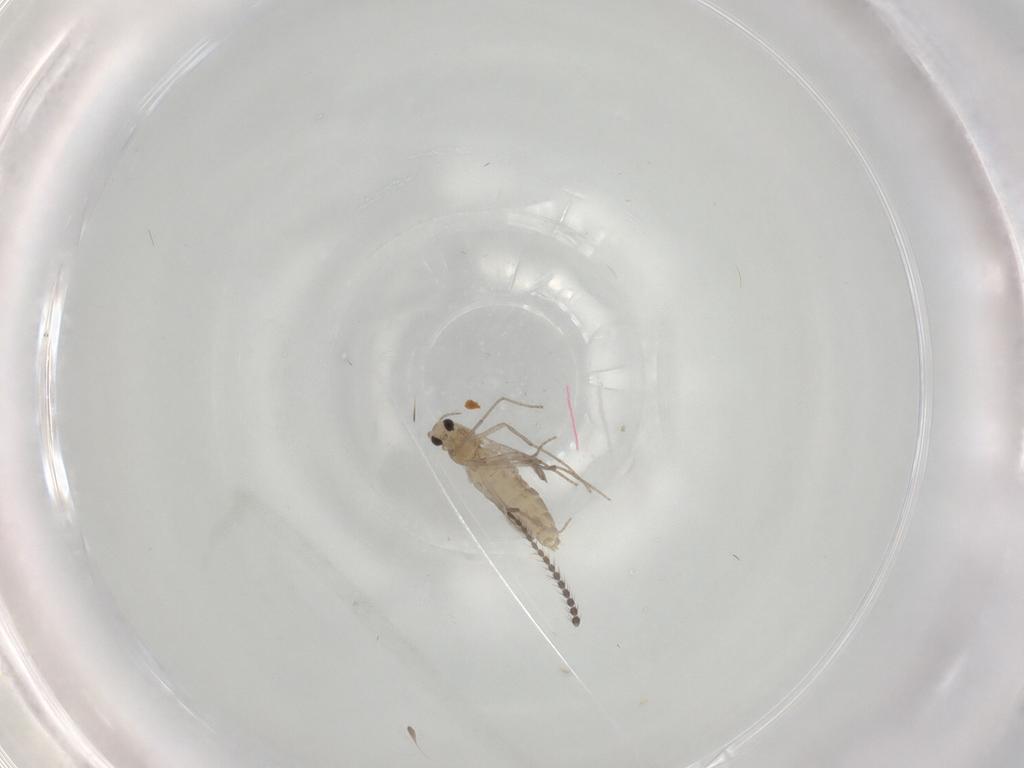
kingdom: Animalia
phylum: Arthropoda
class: Insecta
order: Diptera
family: Chironomidae
